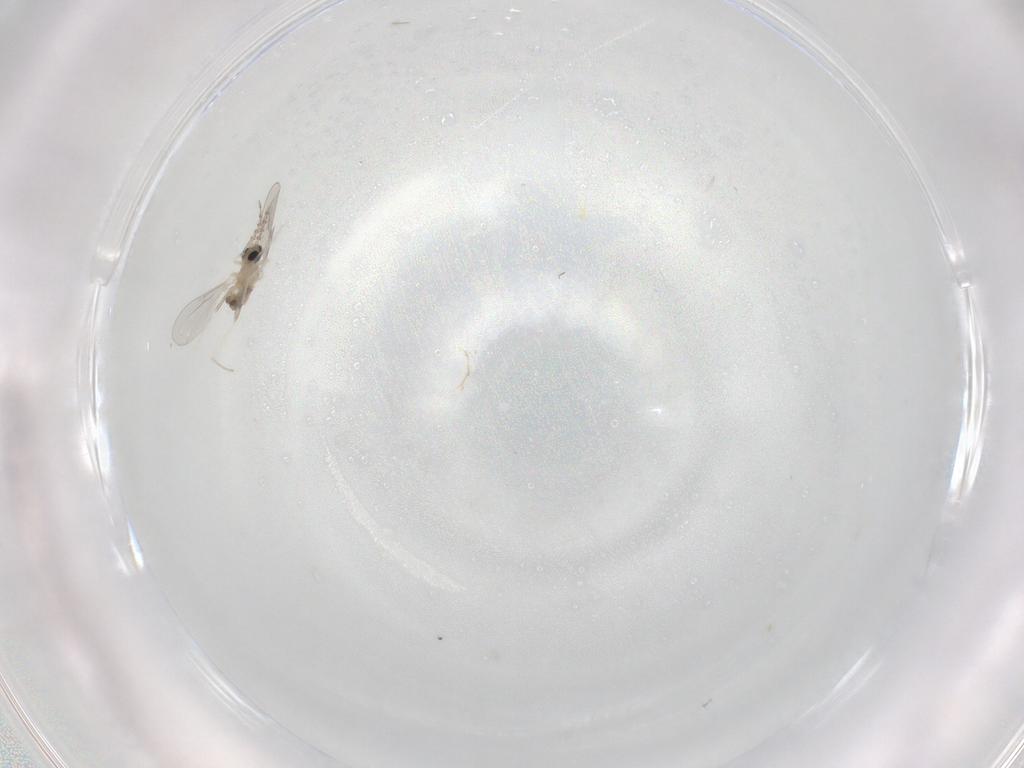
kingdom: Animalia
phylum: Arthropoda
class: Insecta
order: Diptera
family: Cecidomyiidae
